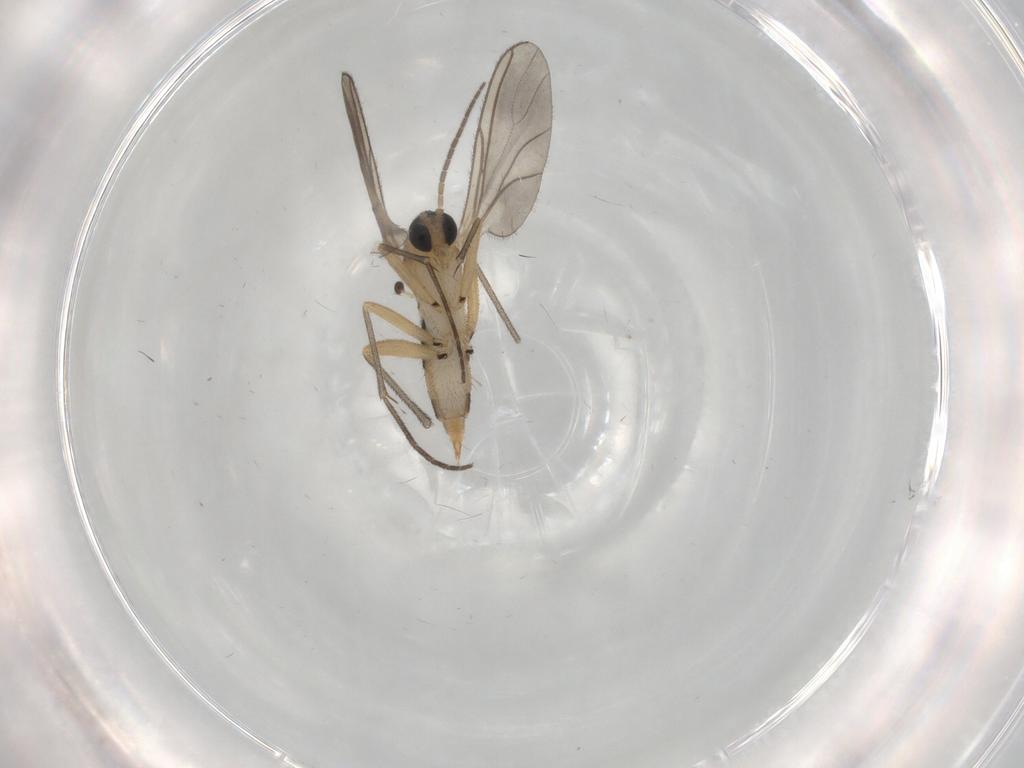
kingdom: Animalia
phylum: Arthropoda
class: Insecta
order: Diptera
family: Sciaridae
